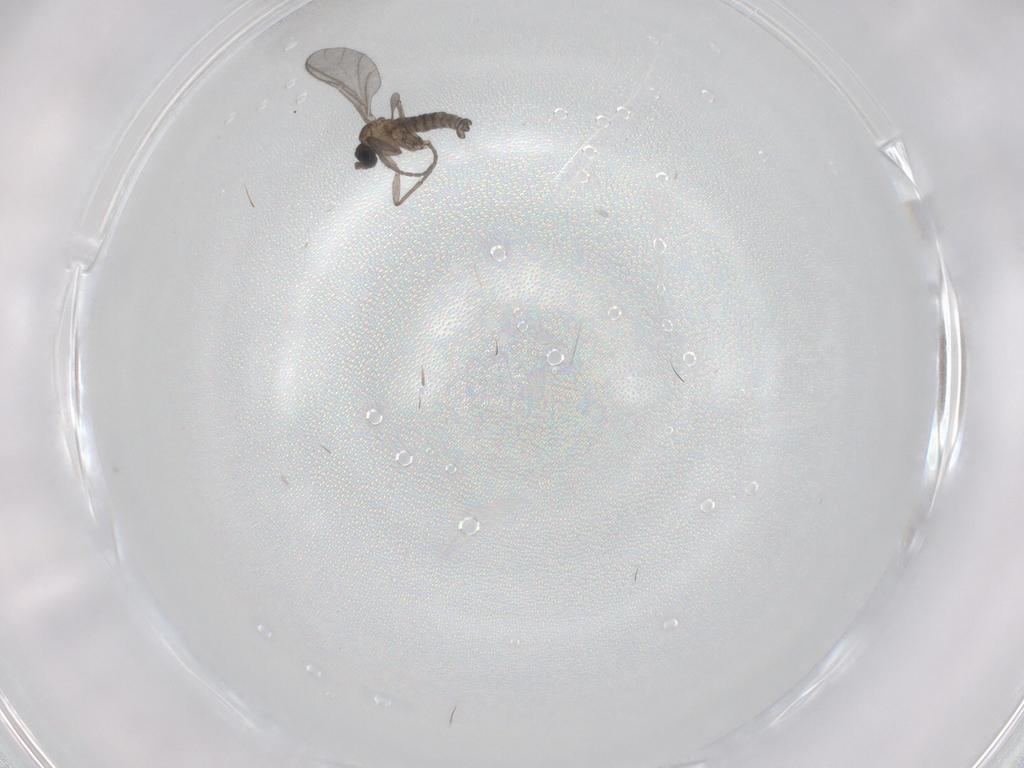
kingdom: Animalia
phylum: Arthropoda
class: Insecta
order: Diptera
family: Sciaridae
